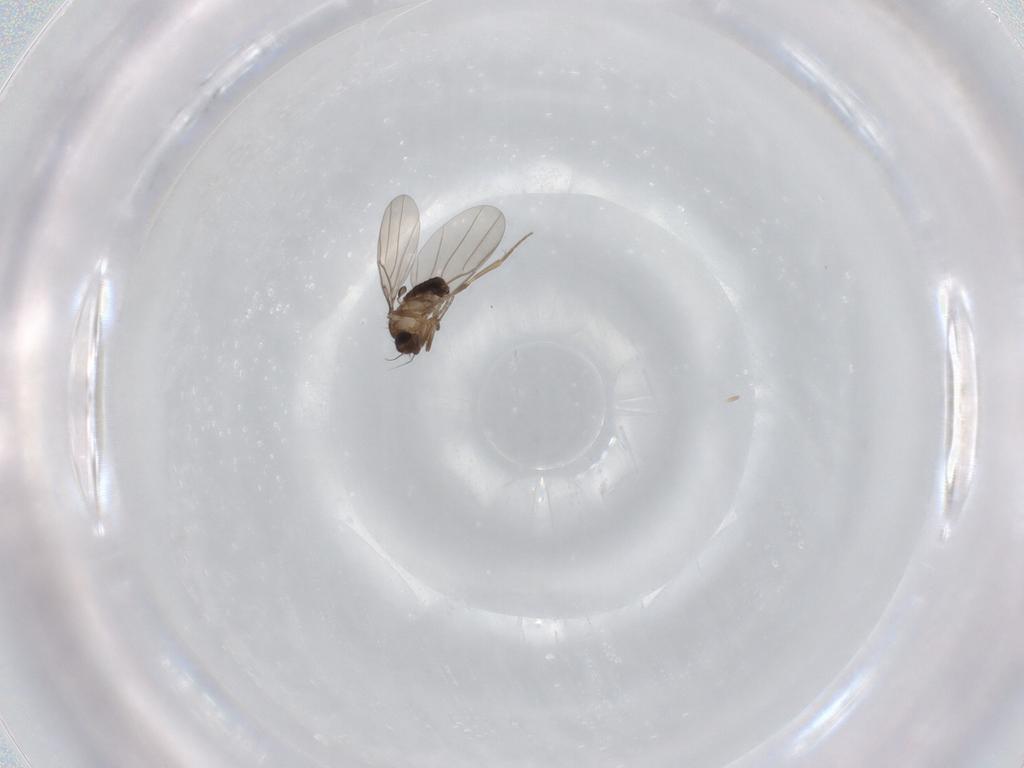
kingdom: Animalia
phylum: Arthropoda
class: Insecta
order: Diptera
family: Phoridae
